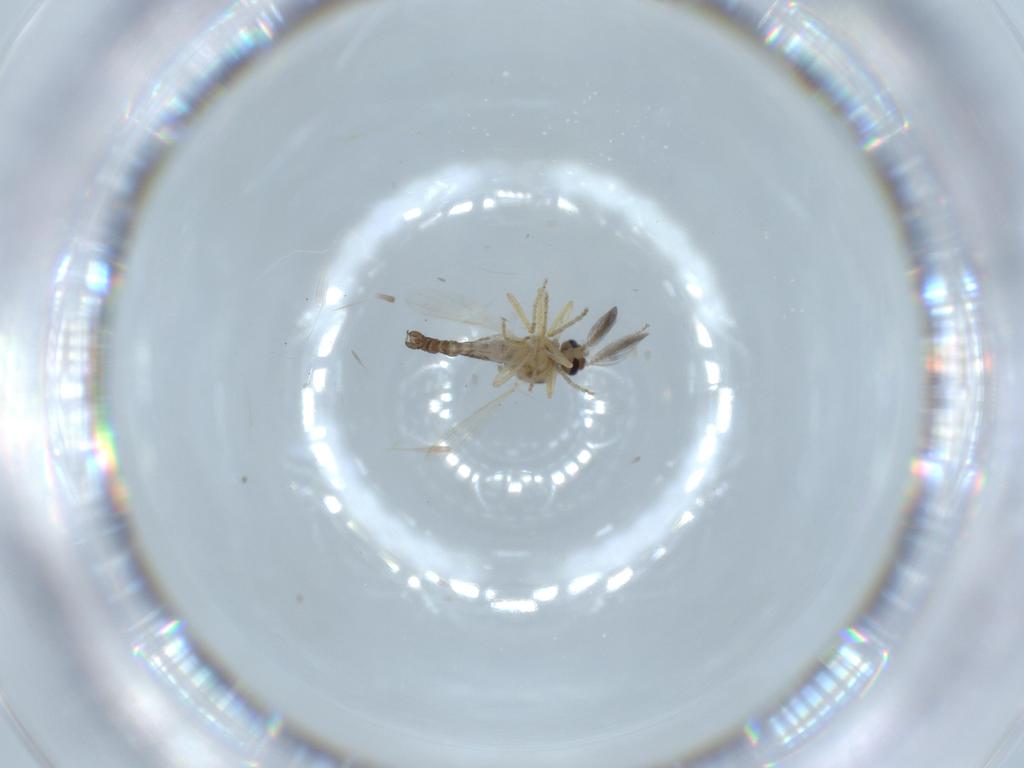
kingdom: Animalia
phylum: Arthropoda
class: Insecta
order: Diptera
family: Ceratopogonidae
